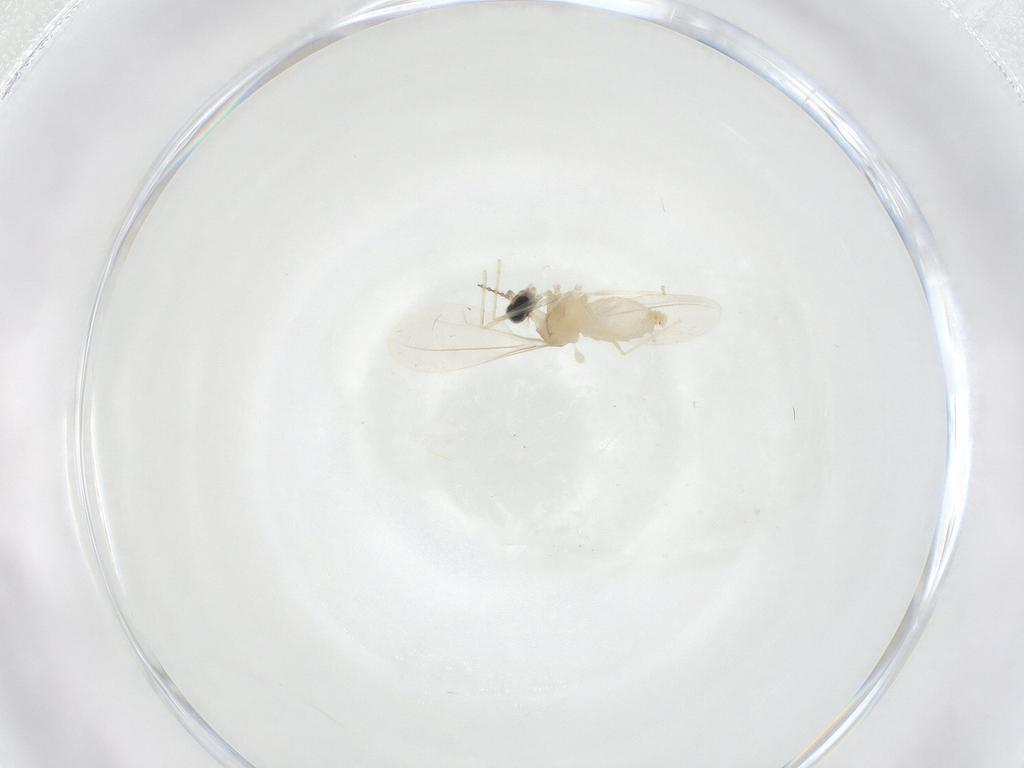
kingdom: Animalia
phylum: Arthropoda
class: Insecta
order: Diptera
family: Cecidomyiidae
